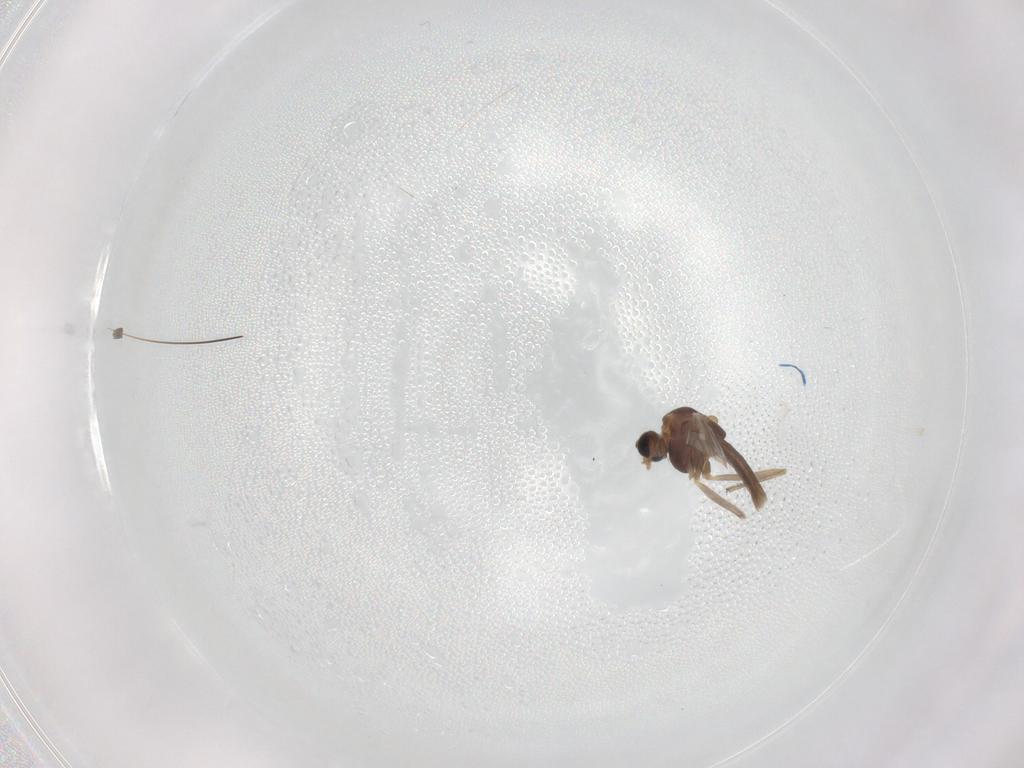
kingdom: Animalia
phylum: Arthropoda
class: Insecta
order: Diptera
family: Chironomidae
